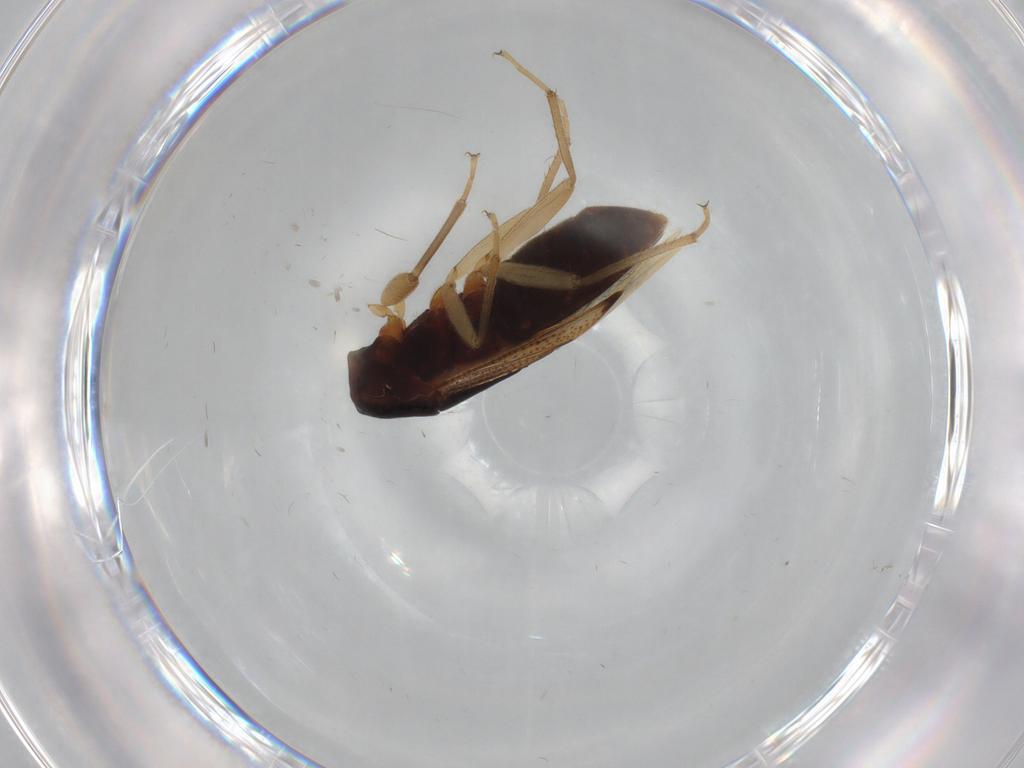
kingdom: Animalia
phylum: Arthropoda
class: Insecta
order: Hemiptera
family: Rhyparochromidae
